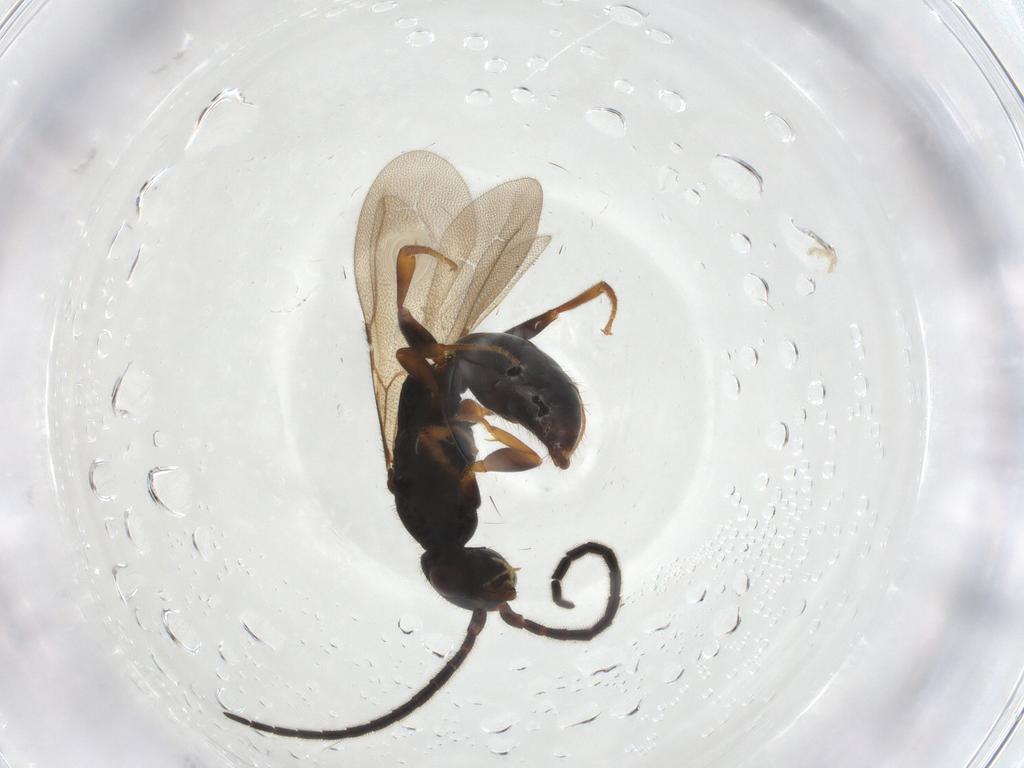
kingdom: Animalia
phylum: Arthropoda
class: Insecta
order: Hymenoptera
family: Bethylidae
